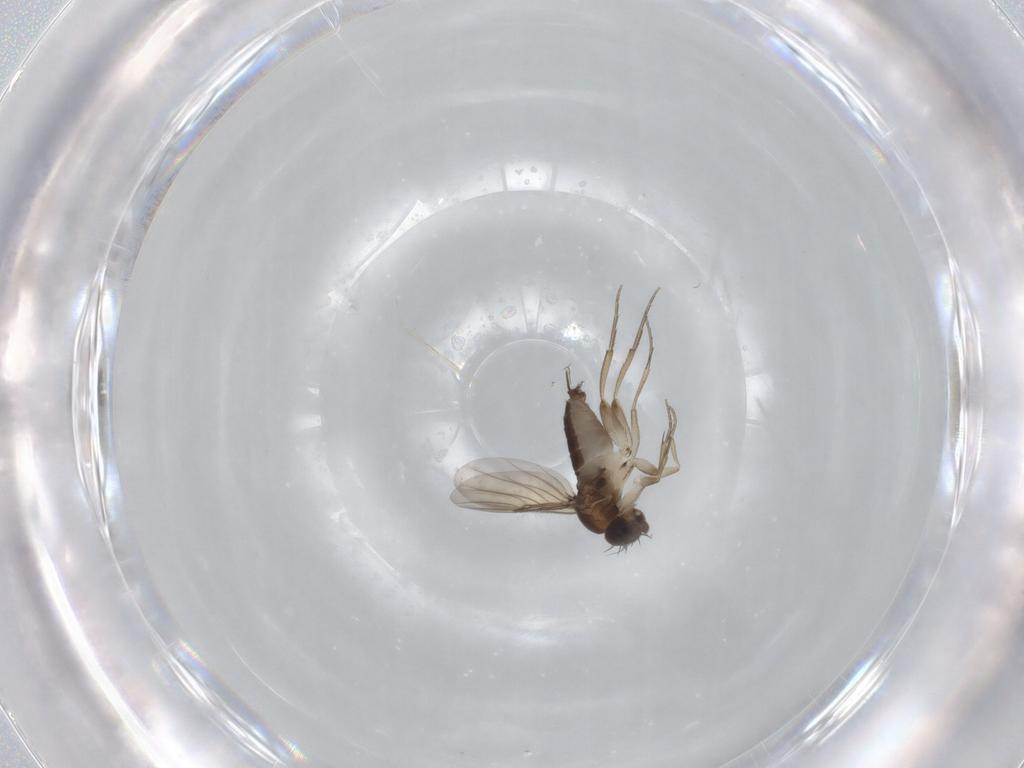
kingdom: Animalia
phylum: Arthropoda
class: Insecta
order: Diptera
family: Phoridae
